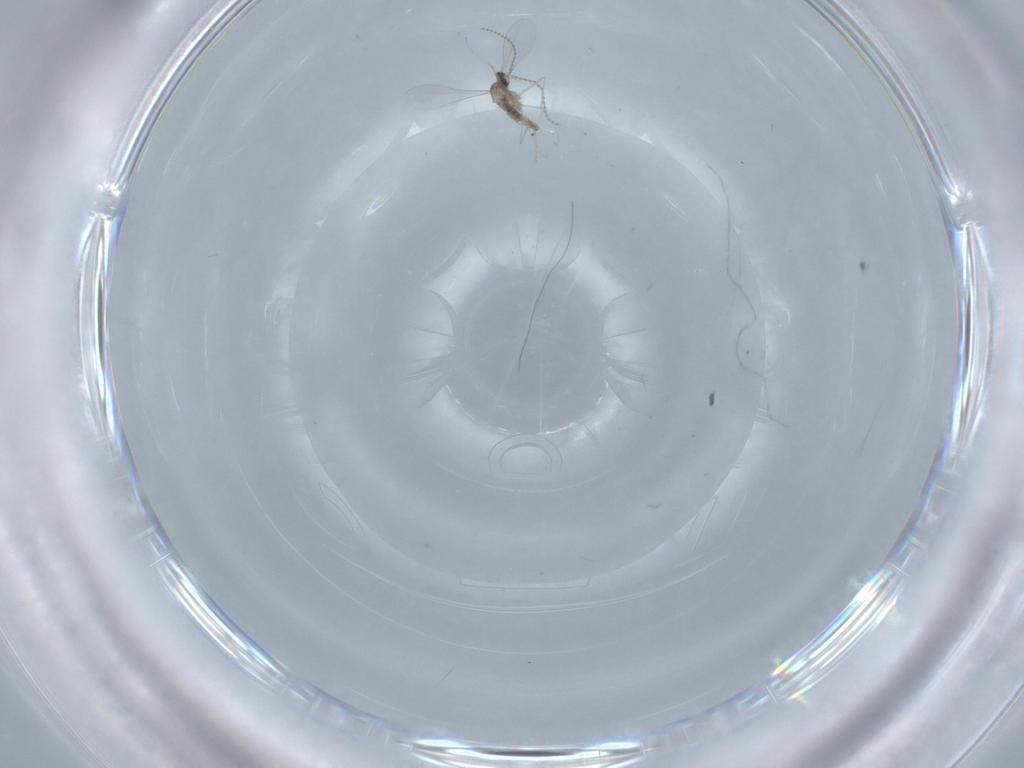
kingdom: Animalia
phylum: Arthropoda
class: Insecta
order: Diptera
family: Cecidomyiidae
